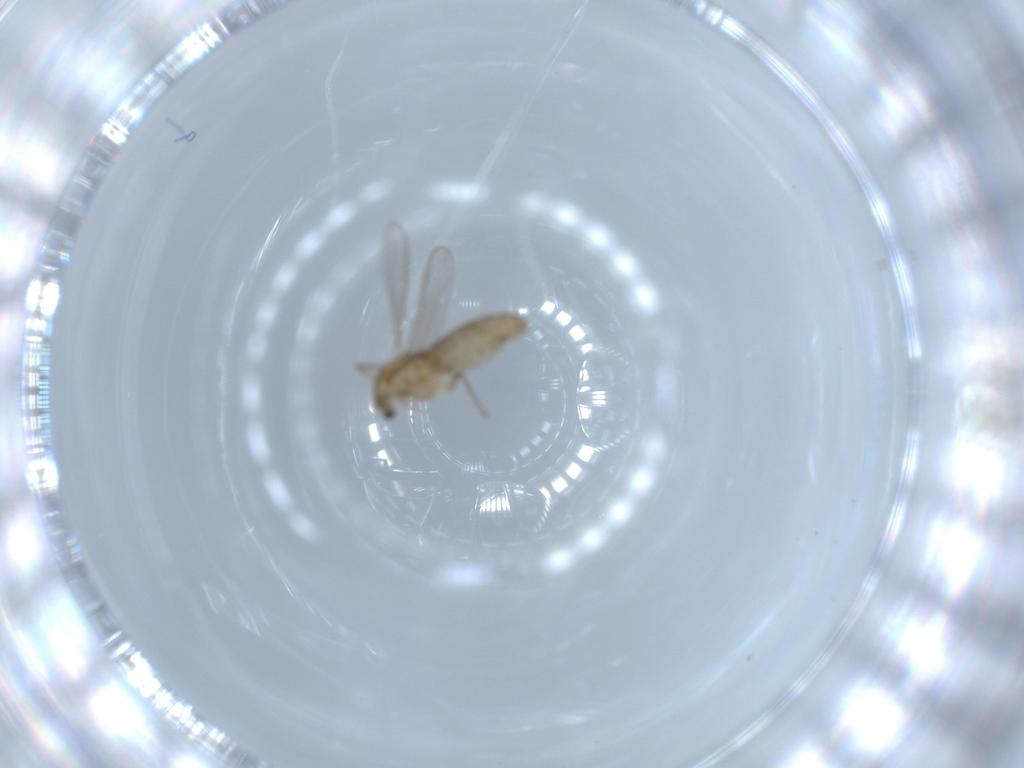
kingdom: Animalia
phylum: Arthropoda
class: Insecta
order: Diptera
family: Chironomidae
